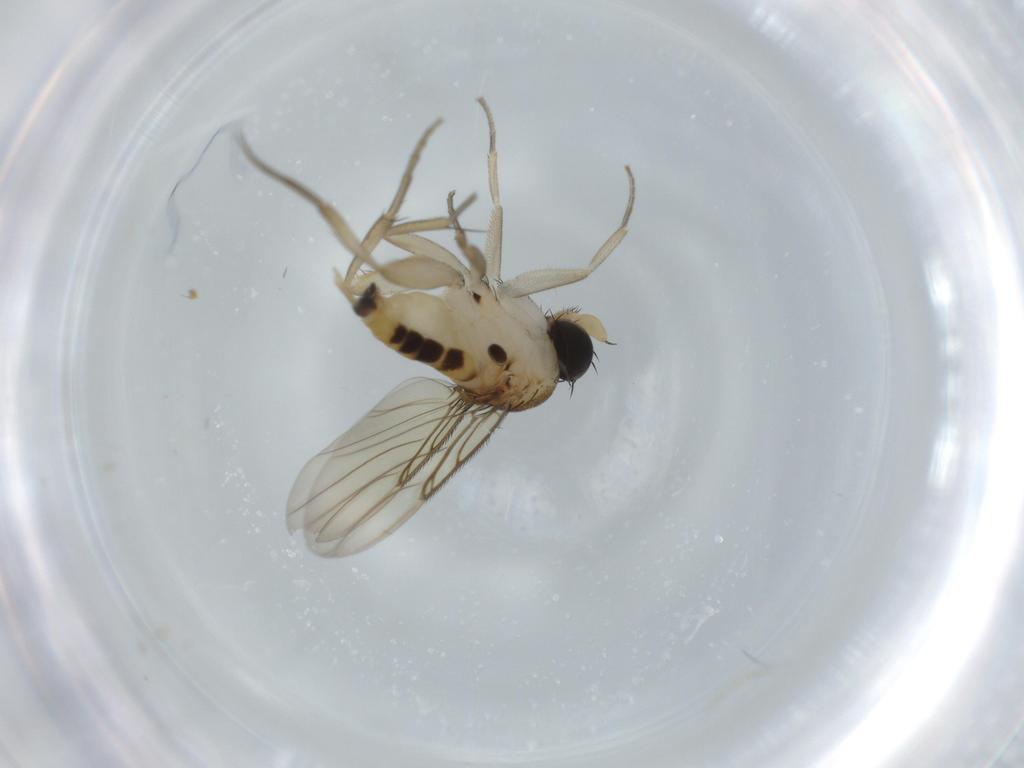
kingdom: Animalia
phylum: Arthropoda
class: Insecta
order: Diptera
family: Phoridae
